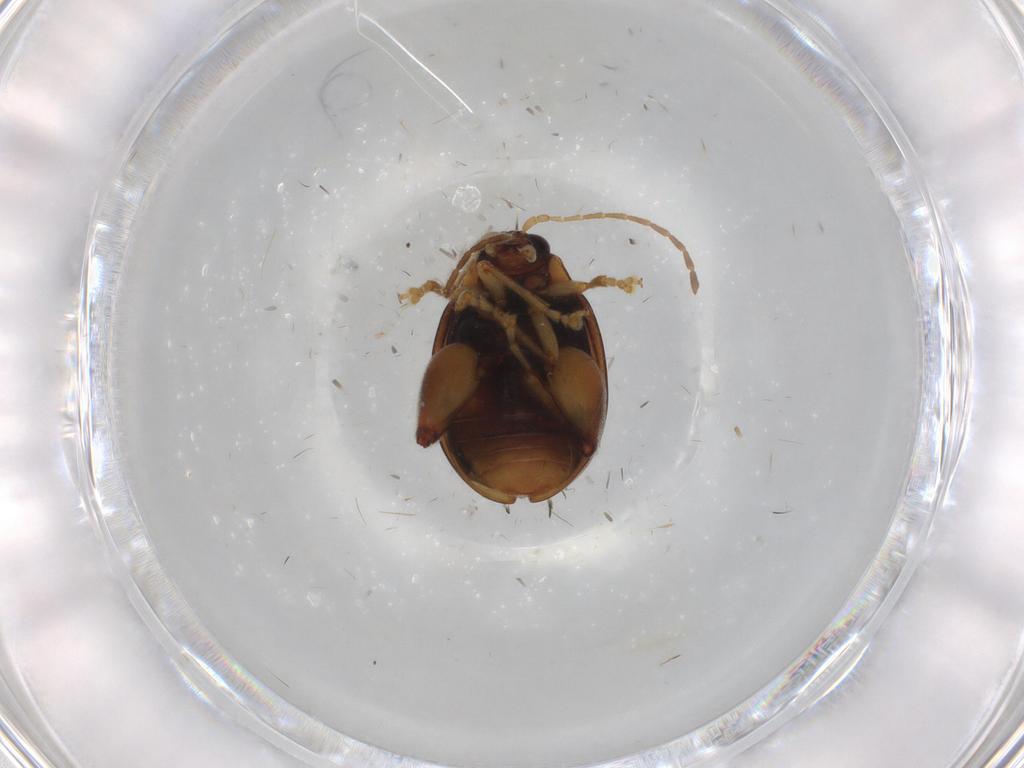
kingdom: Animalia
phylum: Arthropoda
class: Insecta
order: Coleoptera
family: Chrysomelidae
